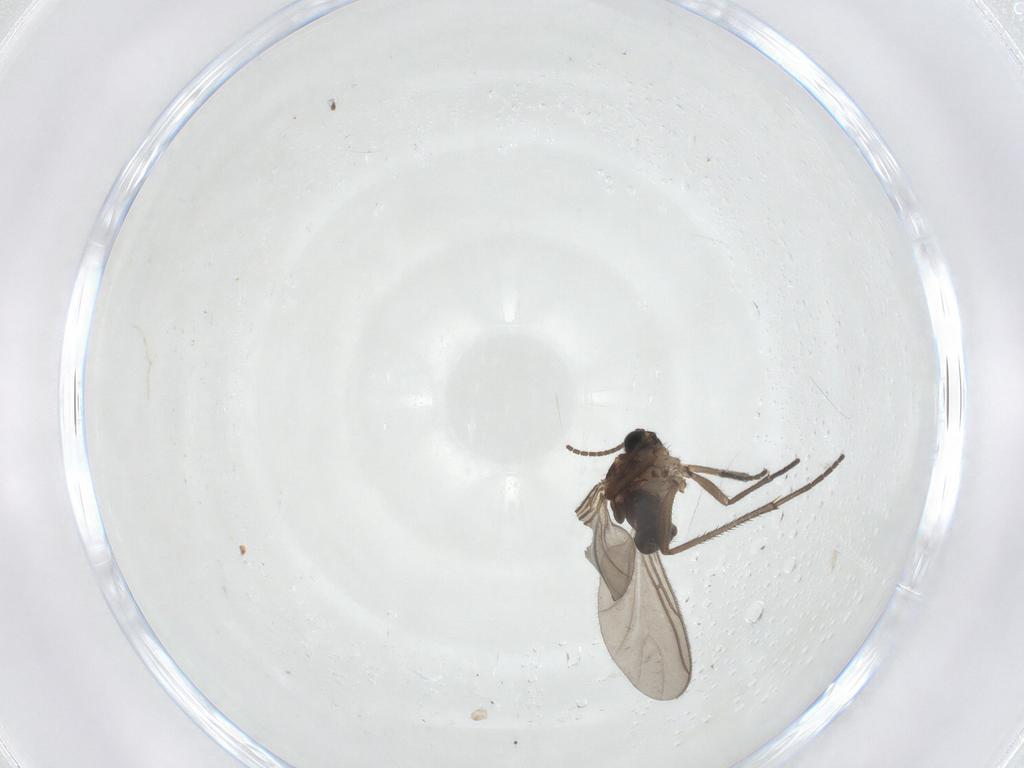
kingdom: Animalia
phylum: Arthropoda
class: Insecta
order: Diptera
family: Sciaridae
